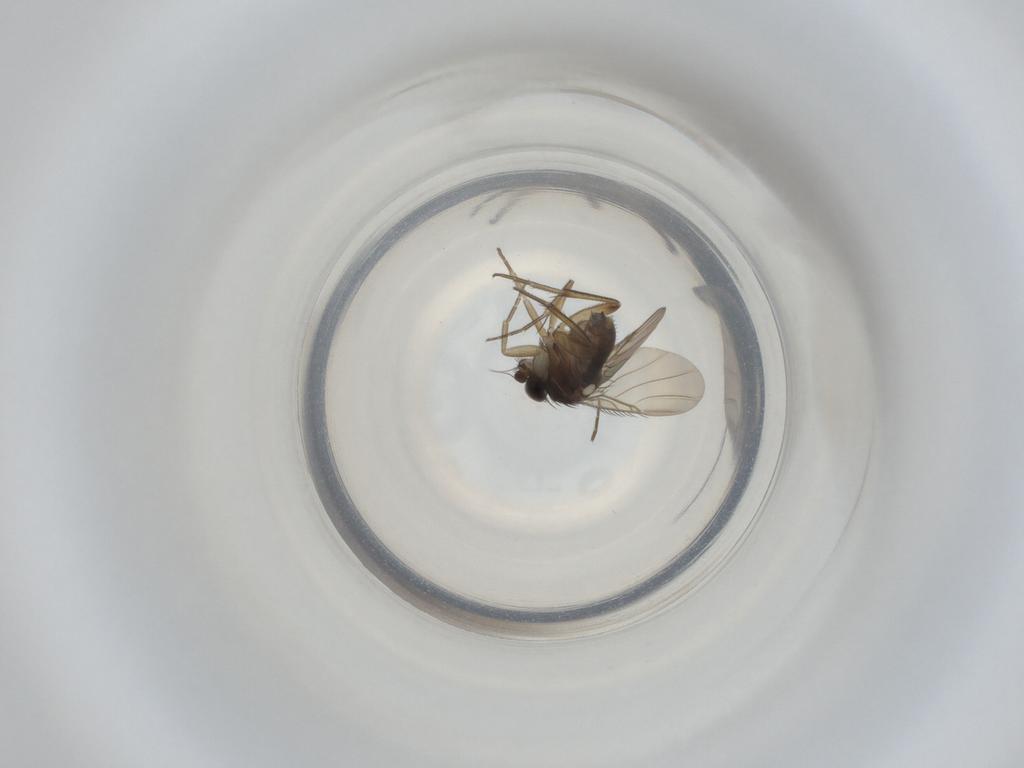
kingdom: Animalia
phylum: Arthropoda
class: Insecta
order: Diptera
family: Phoridae
